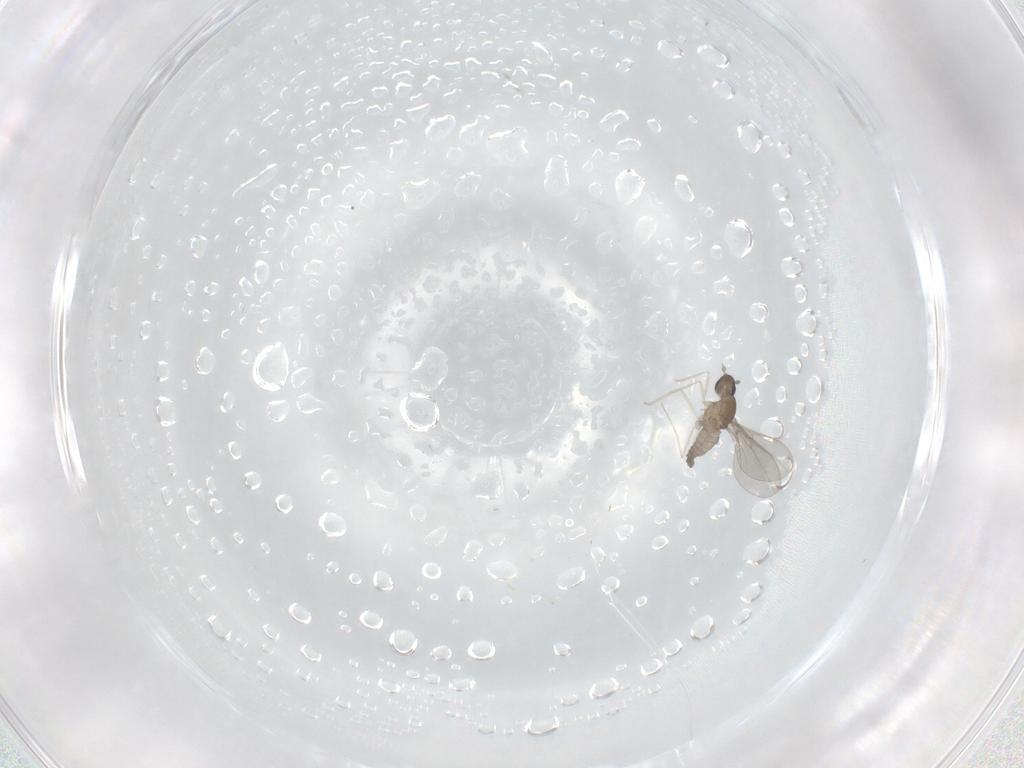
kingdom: Animalia
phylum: Arthropoda
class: Insecta
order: Diptera
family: Cecidomyiidae
